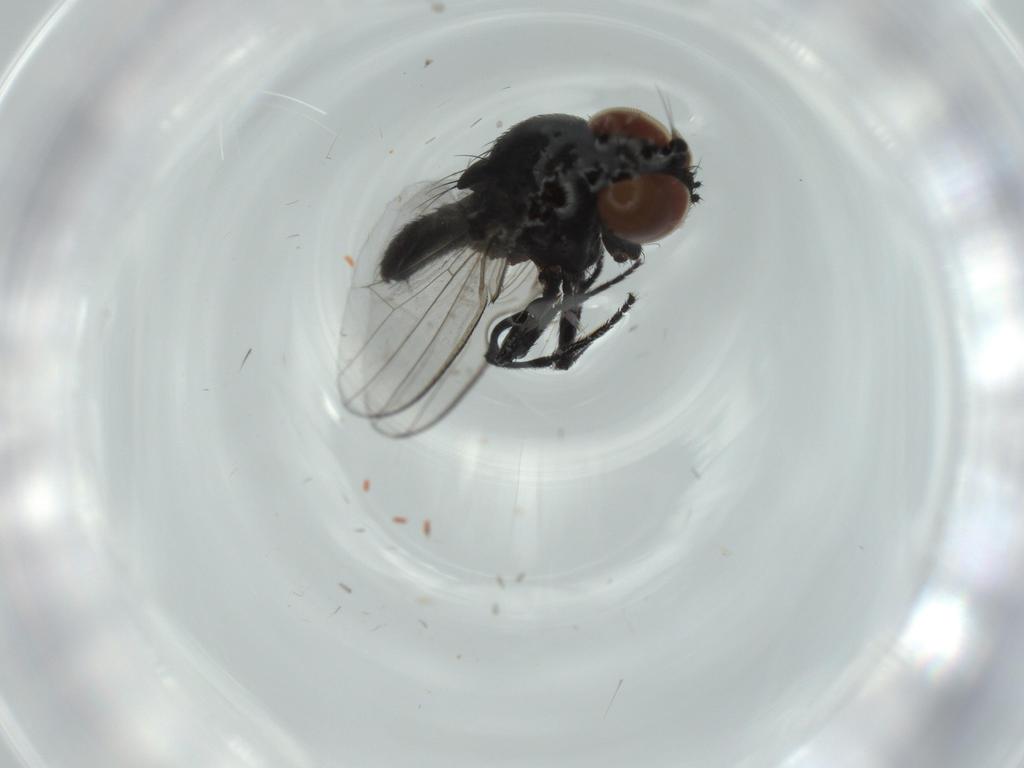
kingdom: Animalia
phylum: Arthropoda
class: Insecta
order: Diptera
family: Milichiidae
